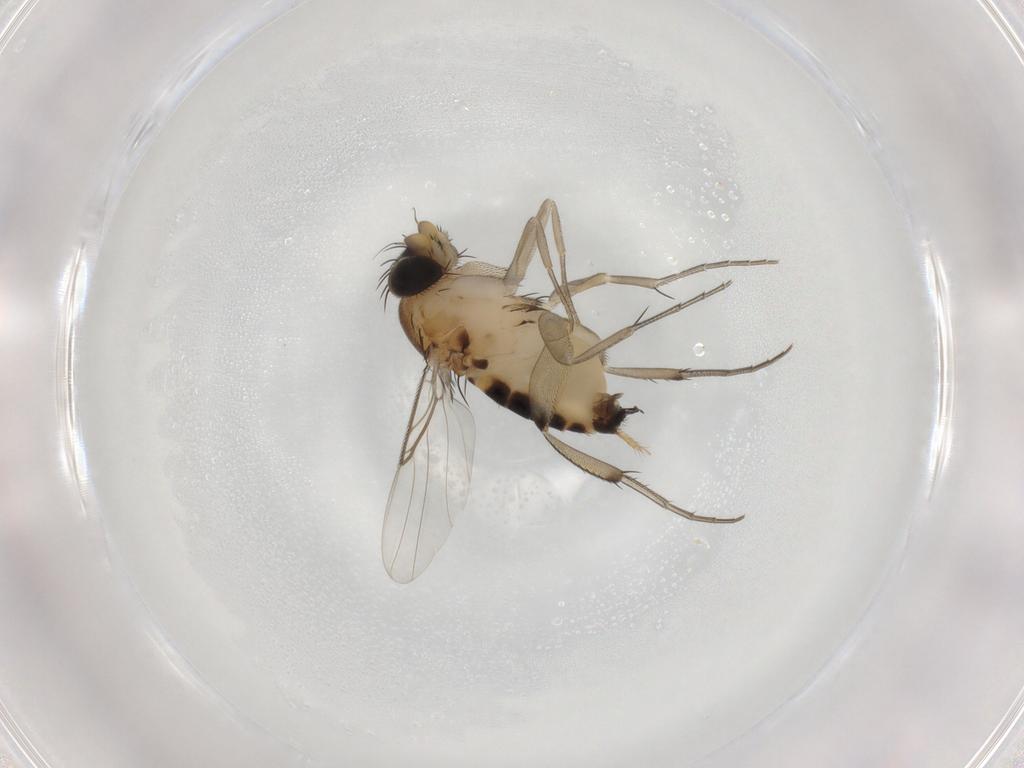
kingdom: Animalia
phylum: Arthropoda
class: Insecta
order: Diptera
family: Phoridae
